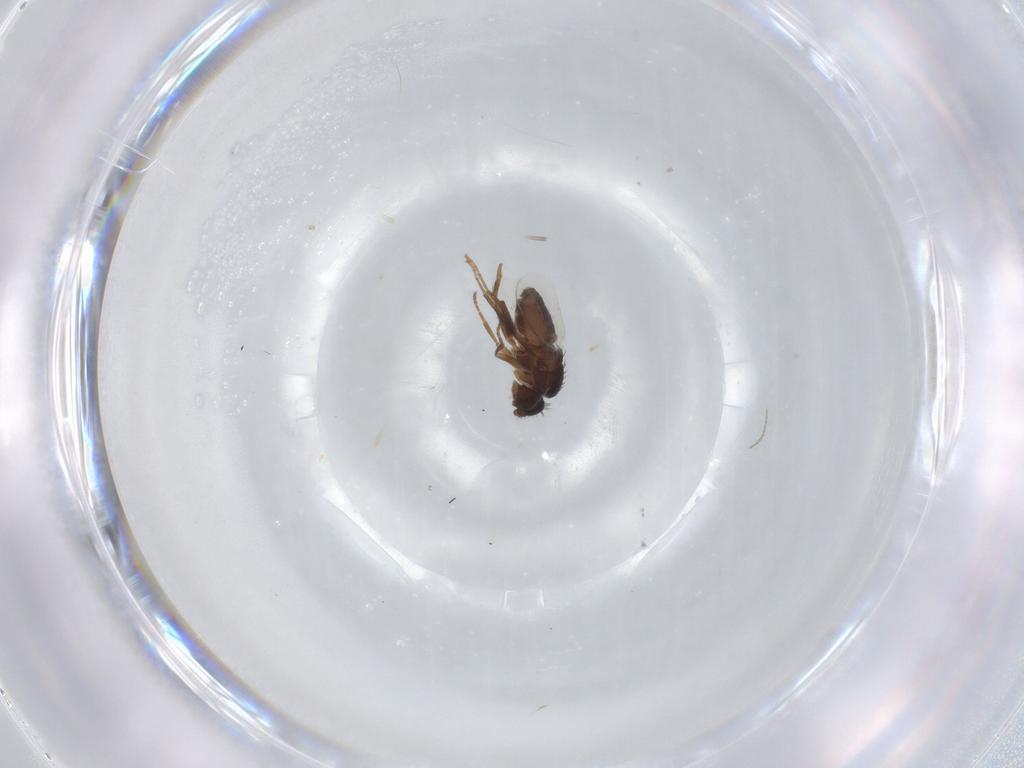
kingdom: Animalia
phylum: Arthropoda
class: Insecta
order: Diptera
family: Sphaeroceridae
